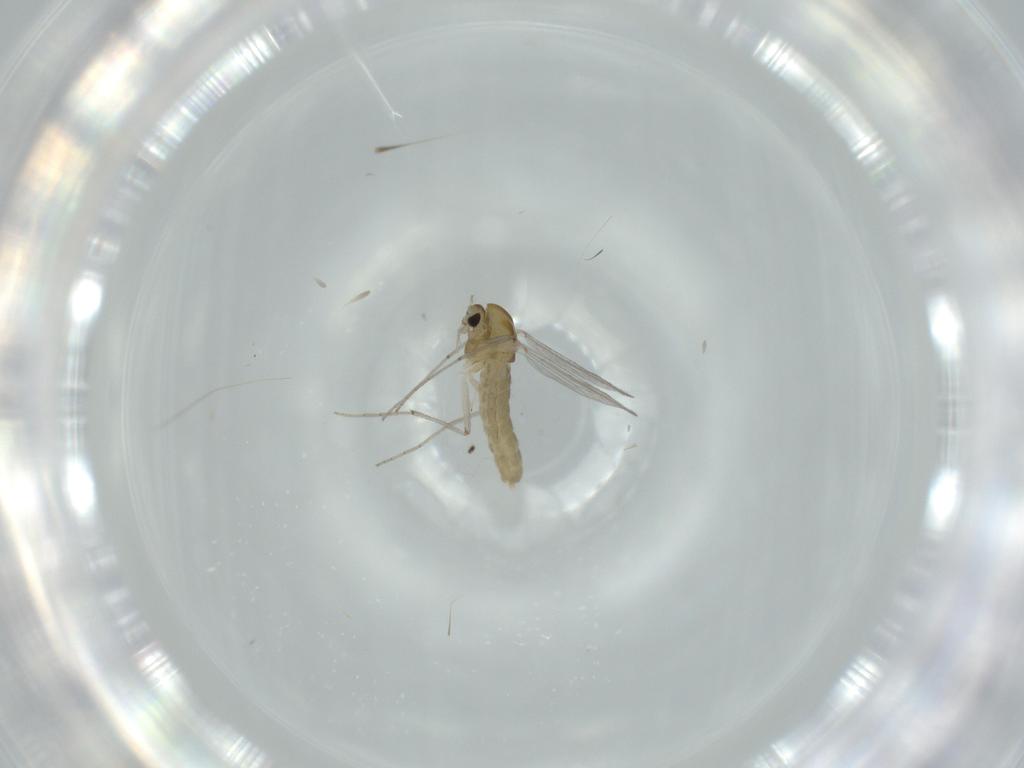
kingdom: Animalia
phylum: Arthropoda
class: Insecta
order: Diptera
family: Chironomidae
